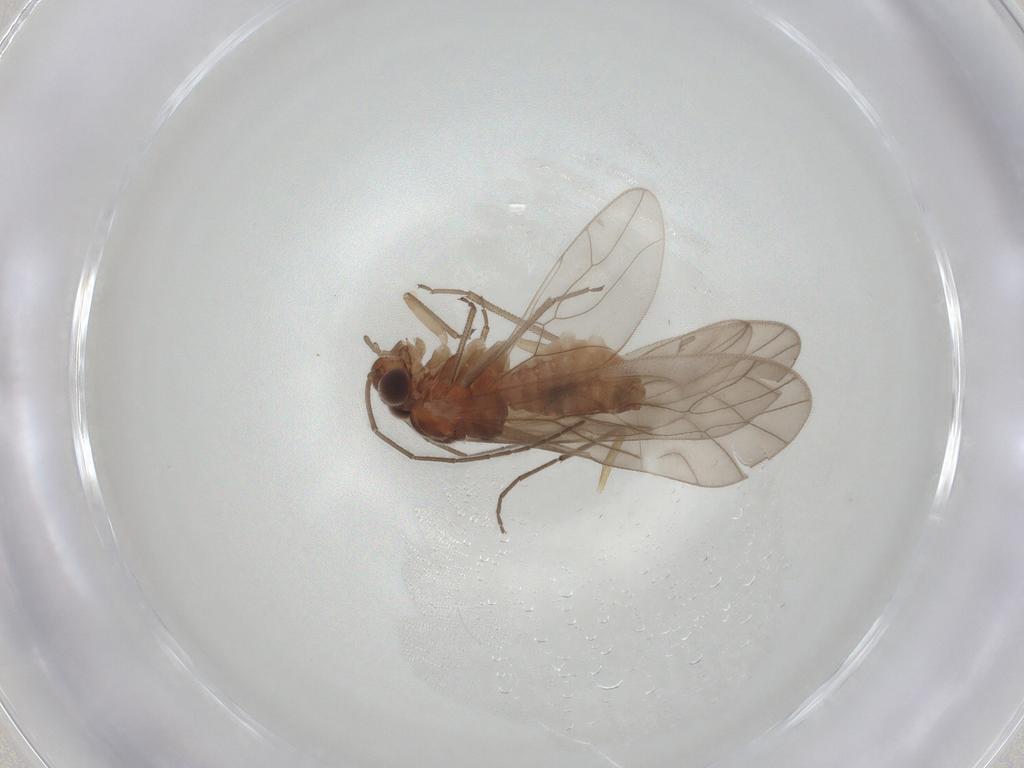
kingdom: Animalia
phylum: Arthropoda
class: Insecta
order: Psocodea
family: Caeciliusidae
